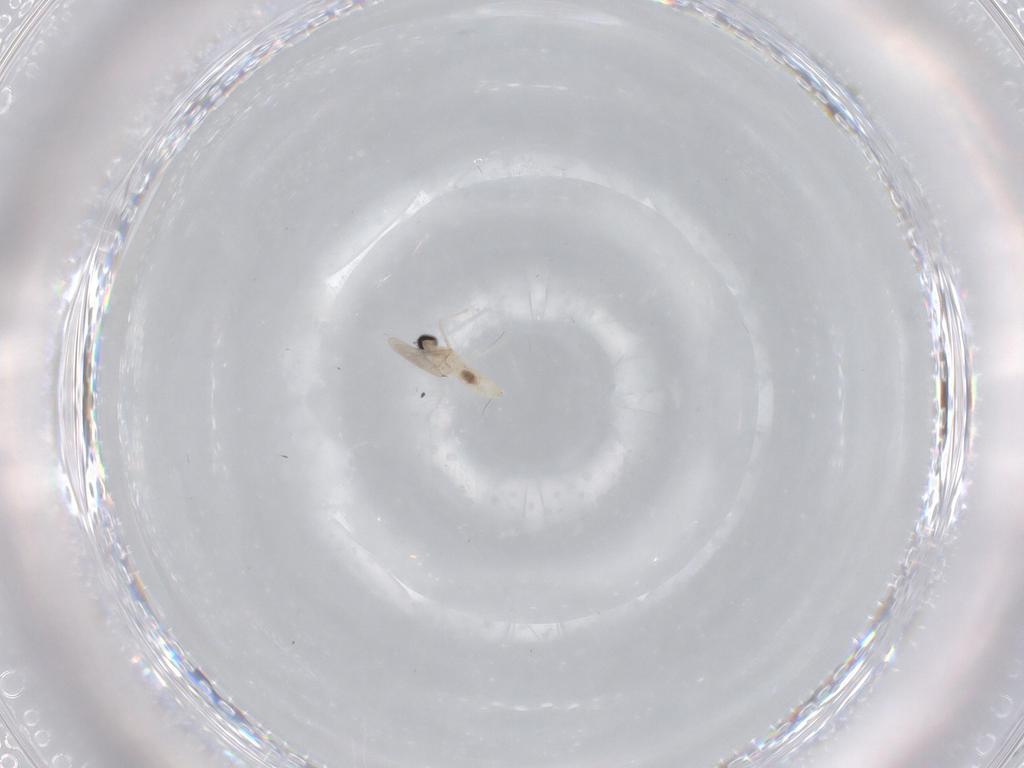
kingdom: Animalia
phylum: Arthropoda
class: Insecta
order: Diptera
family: Cecidomyiidae
